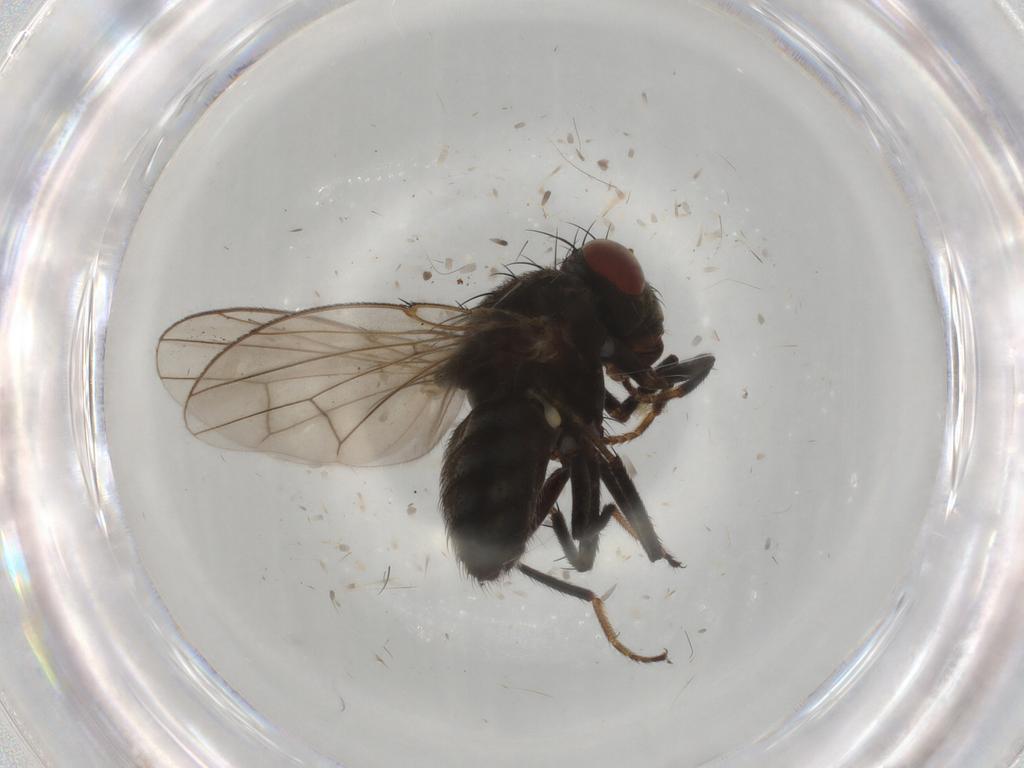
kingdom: Animalia
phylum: Arthropoda
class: Insecta
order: Diptera
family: Ephydridae
